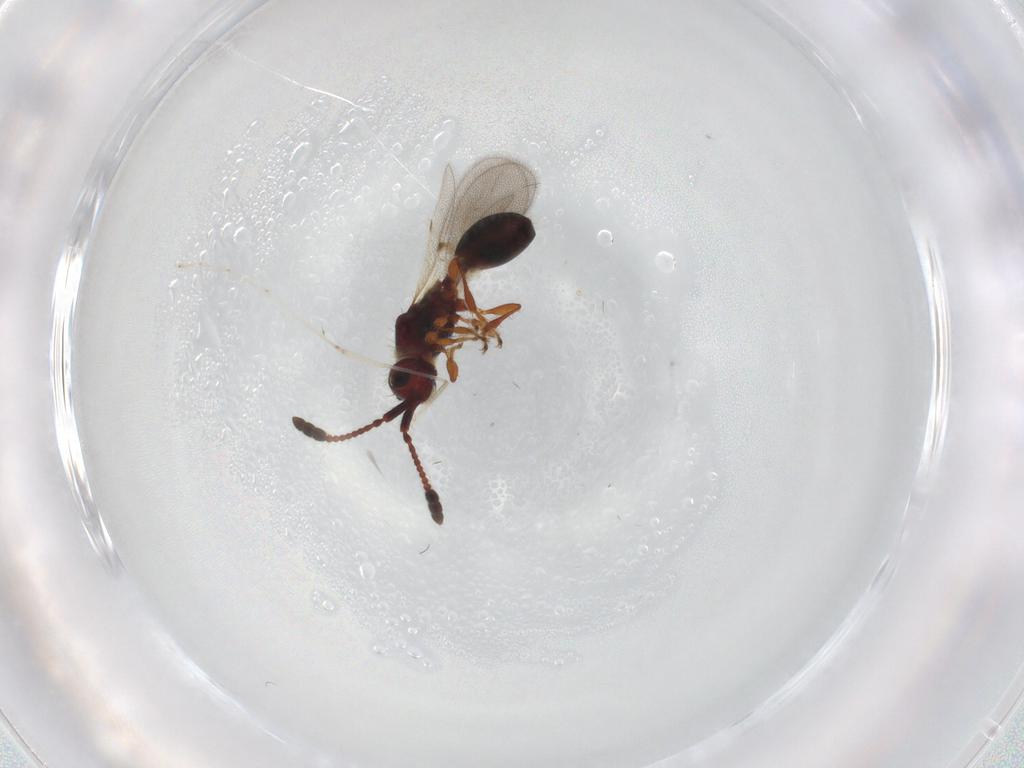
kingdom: Animalia
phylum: Arthropoda
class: Insecta
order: Hymenoptera
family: Diapriidae
